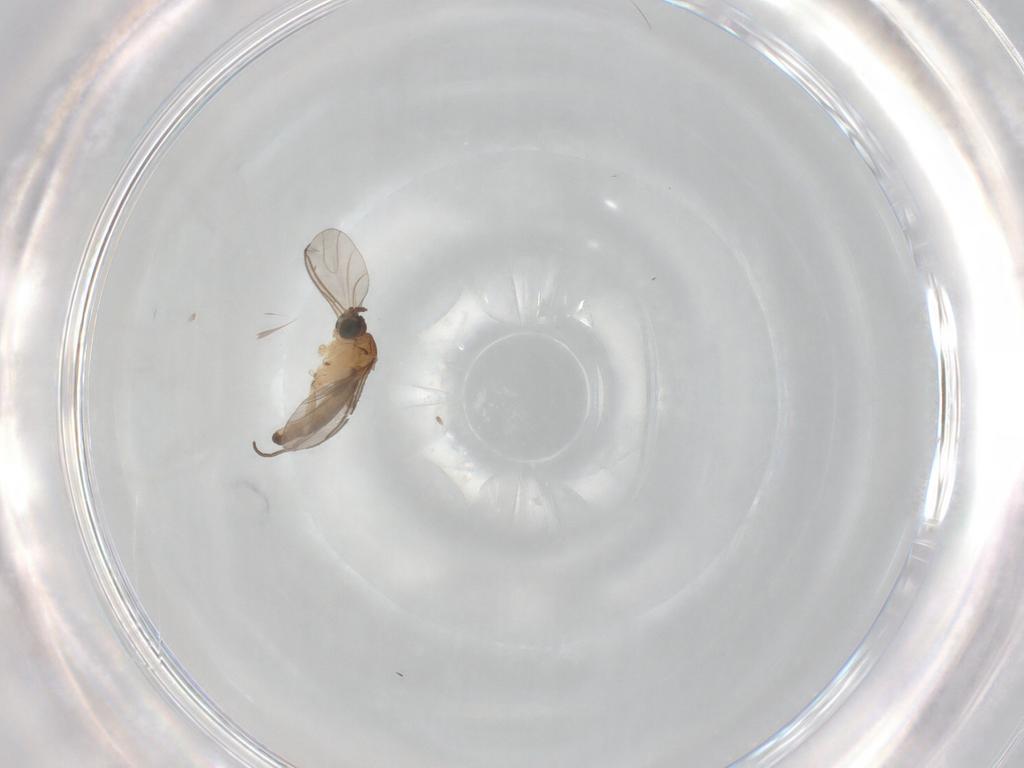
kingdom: Animalia
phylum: Arthropoda
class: Insecta
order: Diptera
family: Sciaridae
